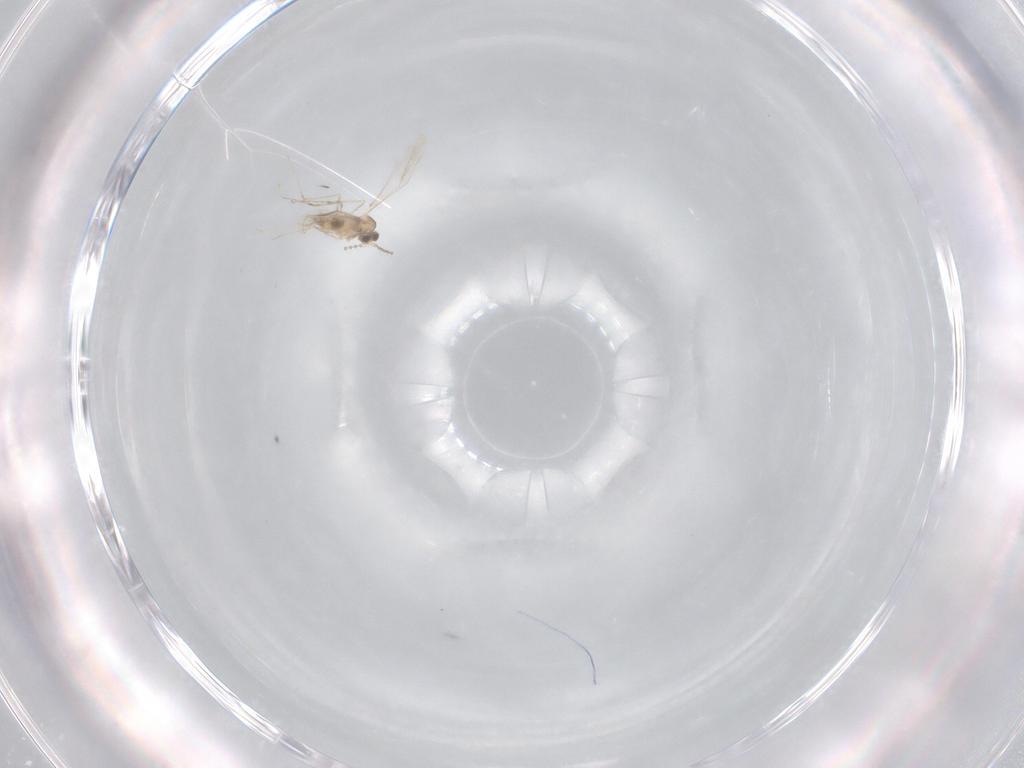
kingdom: Animalia
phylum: Arthropoda
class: Insecta
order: Diptera
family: Cecidomyiidae
